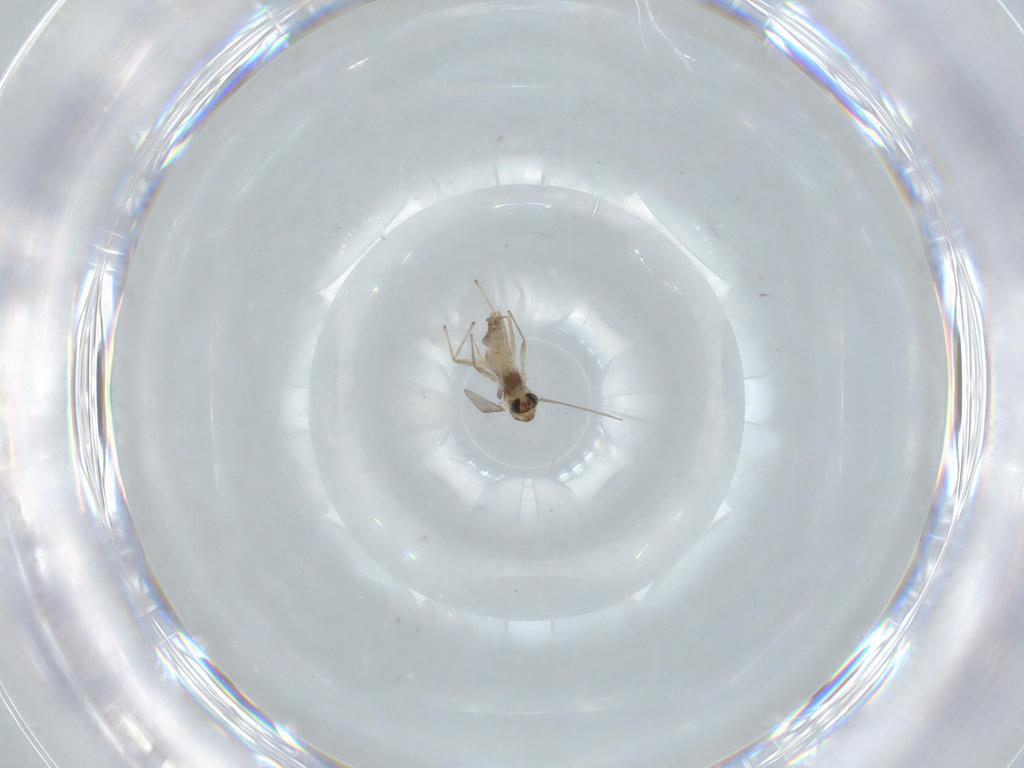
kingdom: Animalia
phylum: Arthropoda
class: Insecta
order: Diptera
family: Chironomidae
